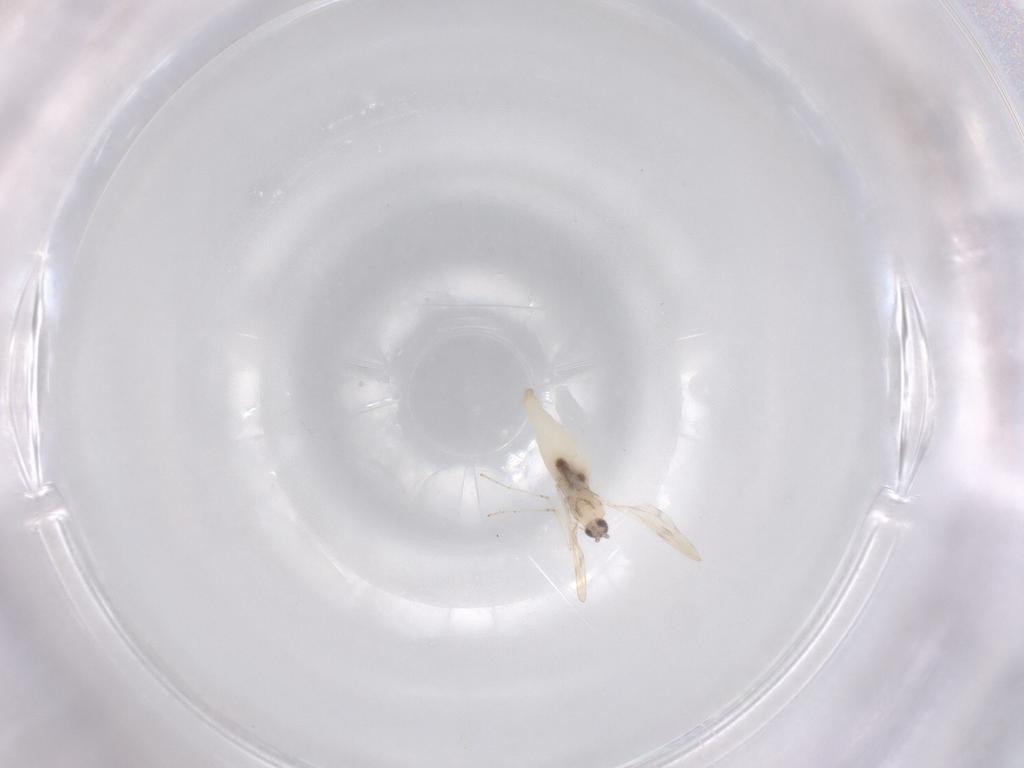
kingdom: Animalia
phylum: Arthropoda
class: Insecta
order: Diptera
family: Cecidomyiidae
